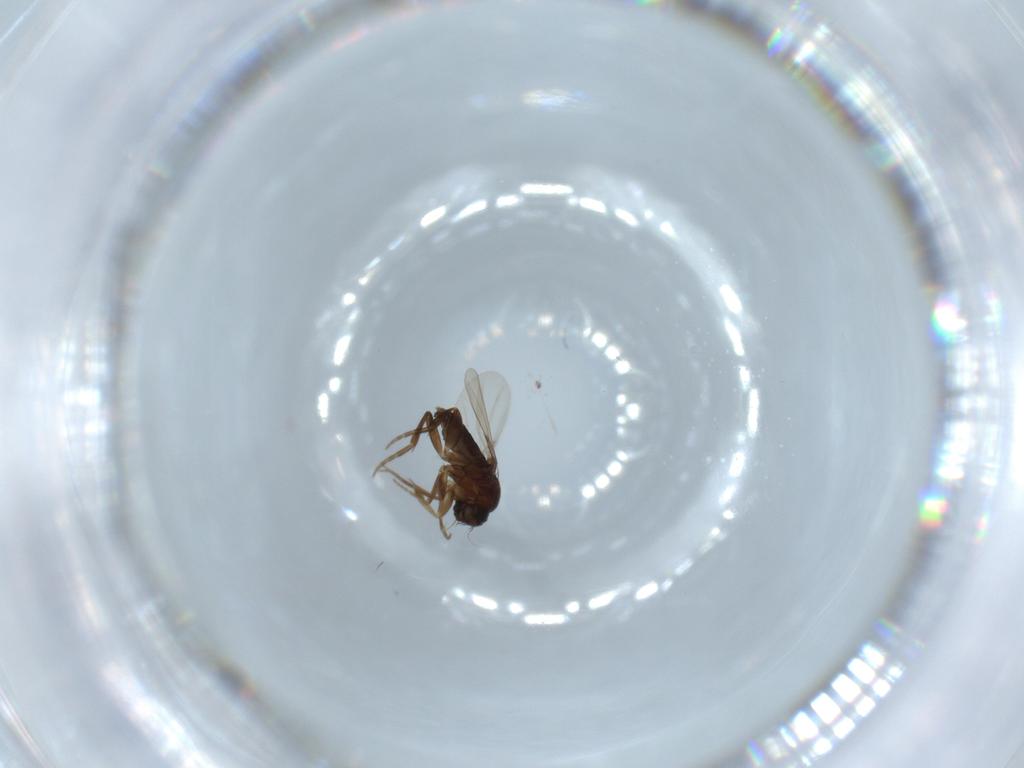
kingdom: Animalia
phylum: Arthropoda
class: Insecta
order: Diptera
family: Phoridae
